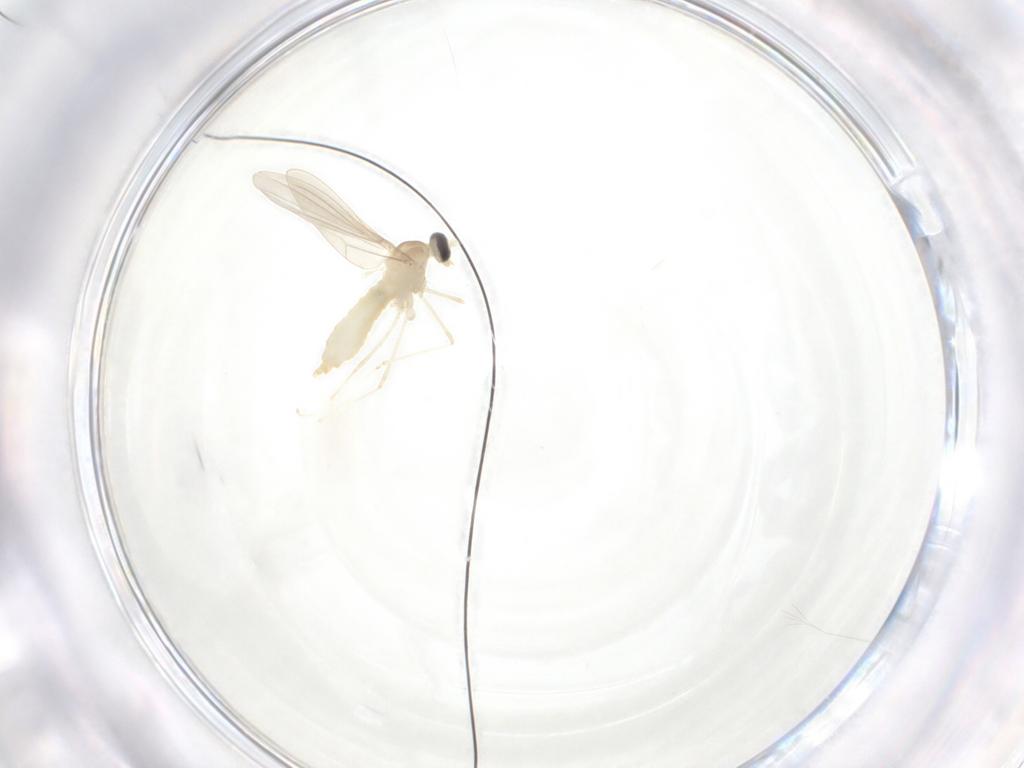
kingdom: Animalia
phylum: Arthropoda
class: Insecta
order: Diptera
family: Cecidomyiidae
